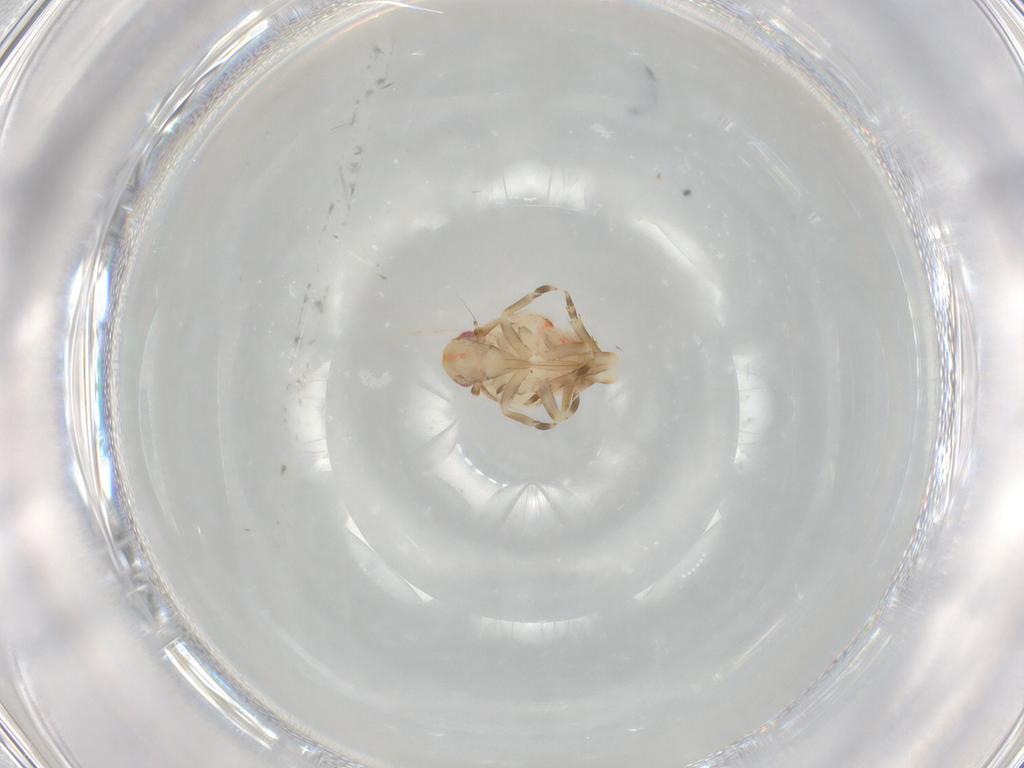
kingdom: Animalia
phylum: Arthropoda
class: Insecta
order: Hemiptera
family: Flatidae
